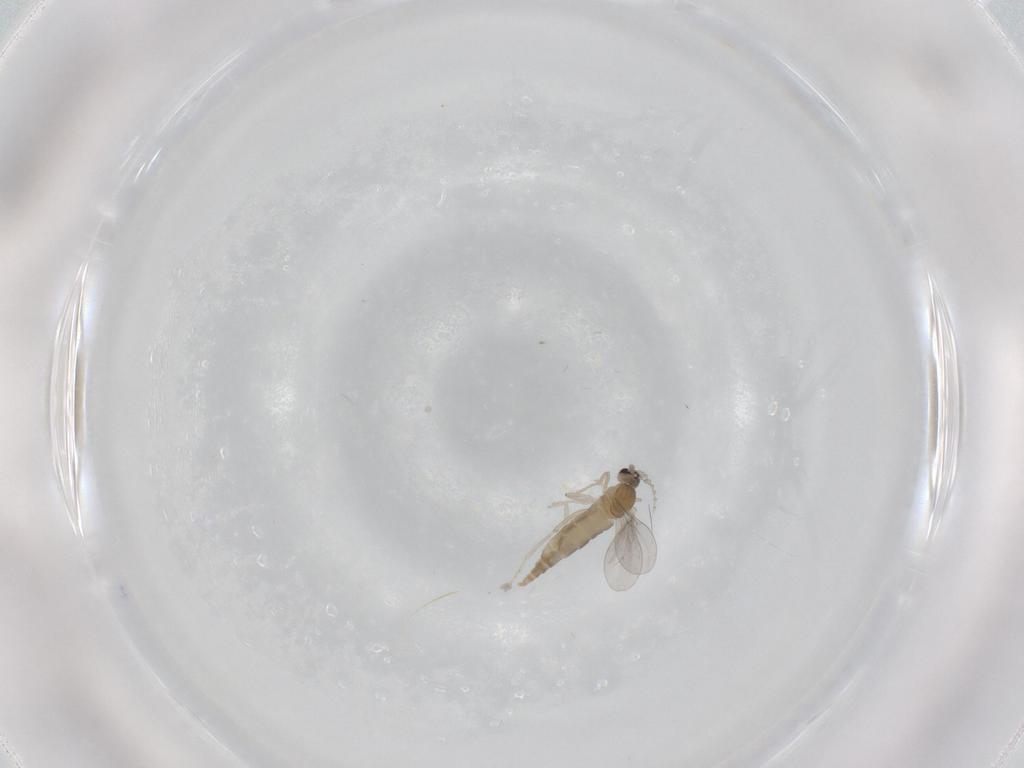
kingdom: Animalia
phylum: Arthropoda
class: Insecta
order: Diptera
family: Cecidomyiidae
